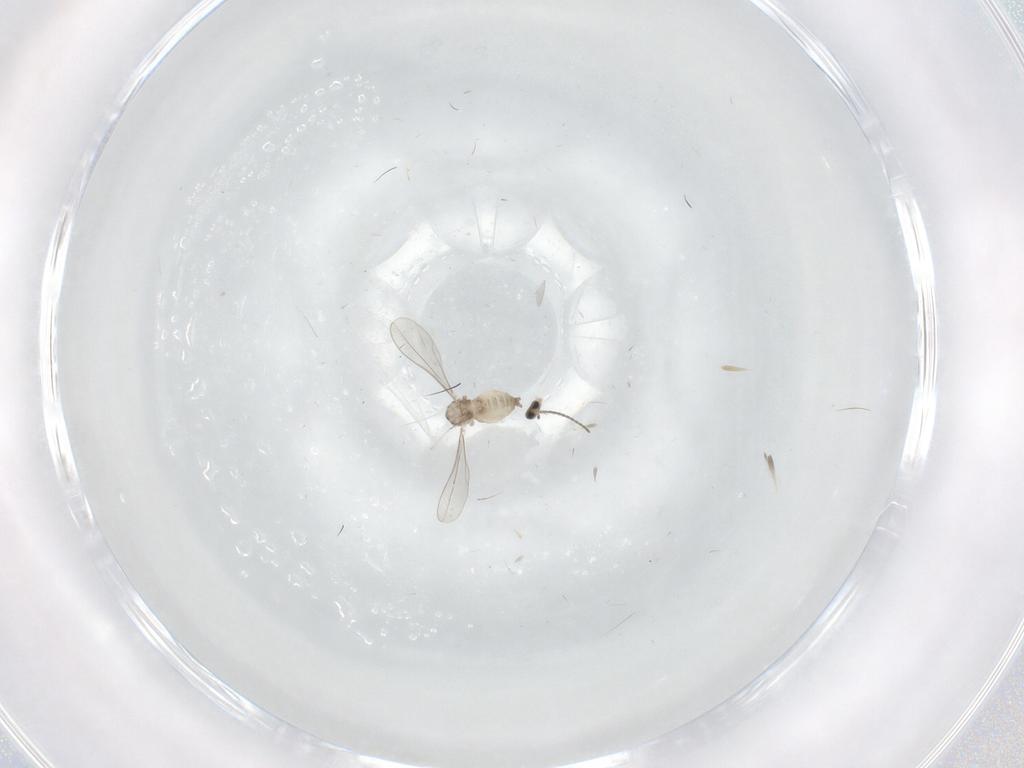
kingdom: Animalia
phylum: Arthropoda
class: Insecta
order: Diptera
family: Cecidomyiidae
